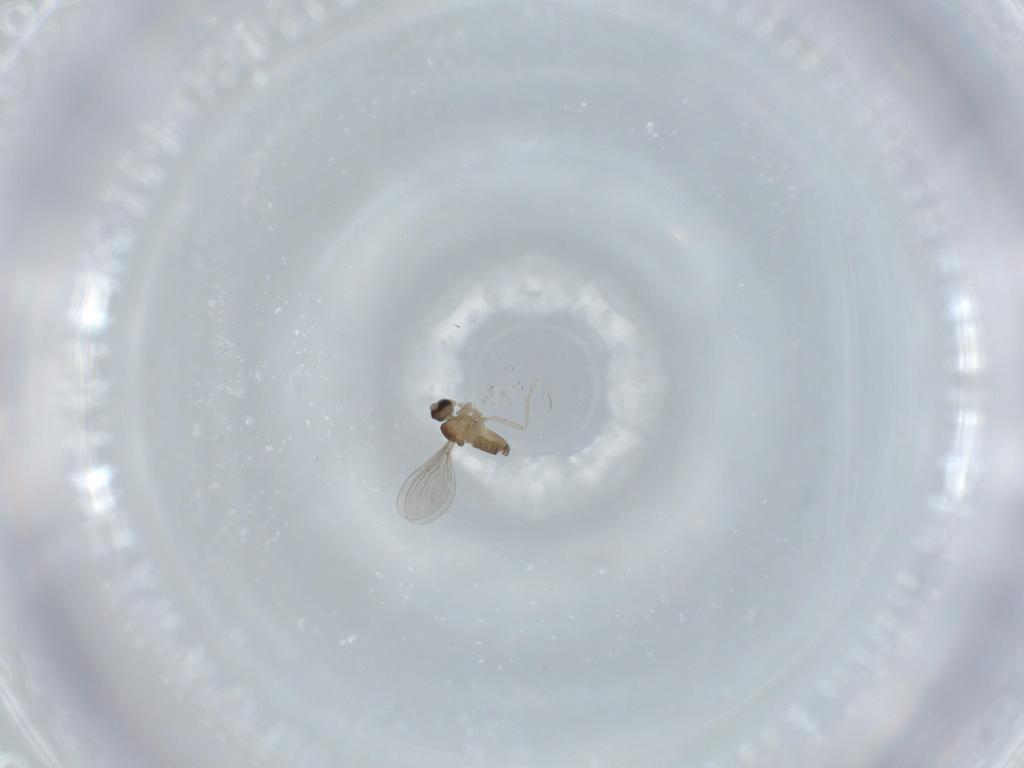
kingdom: Animalia
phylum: Arthropoda
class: Insecta
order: Diptera
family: Cecidomyiidae
